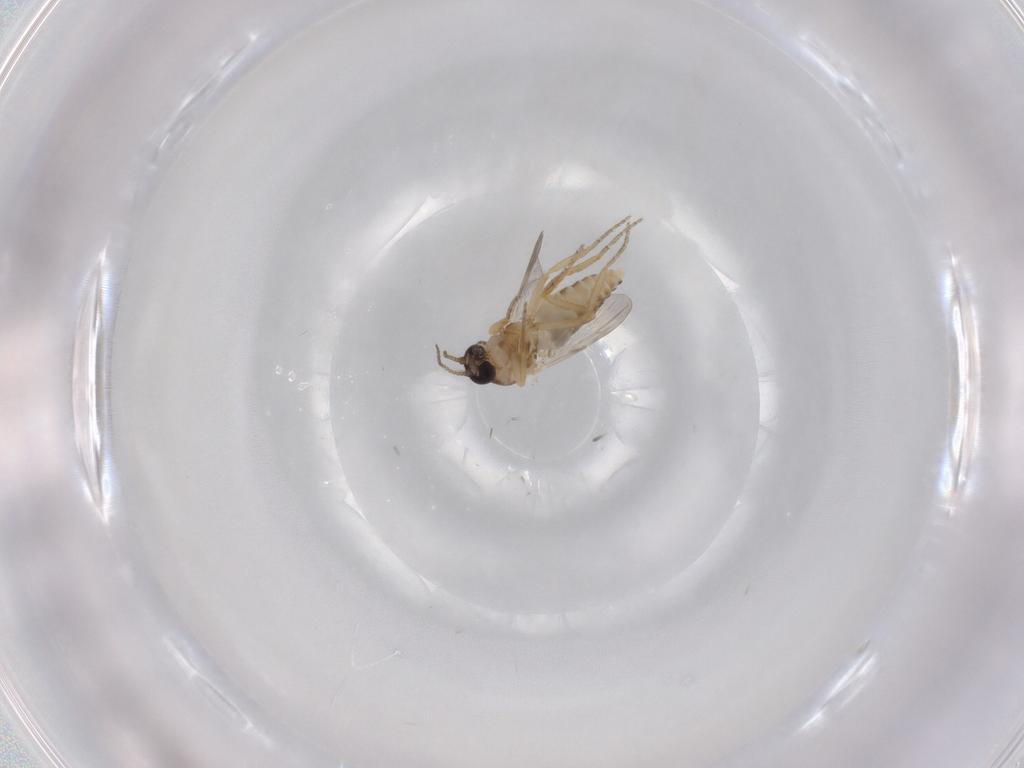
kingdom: Animalia
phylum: Arthropoda
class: Insecta
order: Diptera
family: Ceratopogonidae
